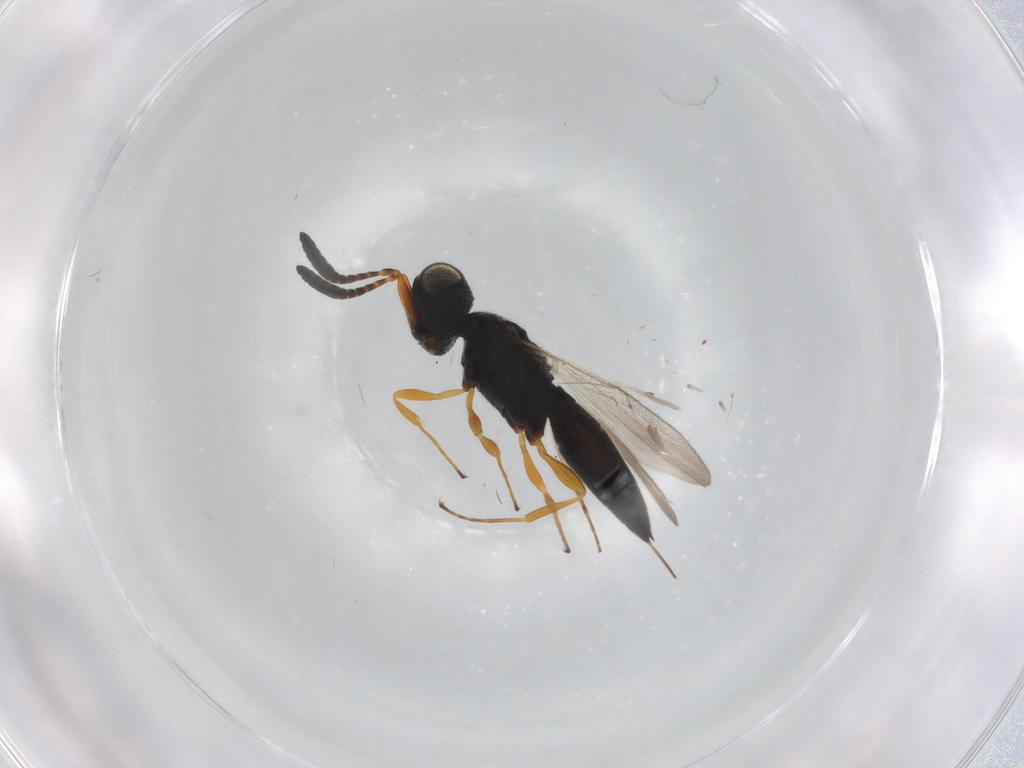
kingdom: Animalia
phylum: Arthropoda
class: Insecta
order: Hymenoptera
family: Scelionidae
